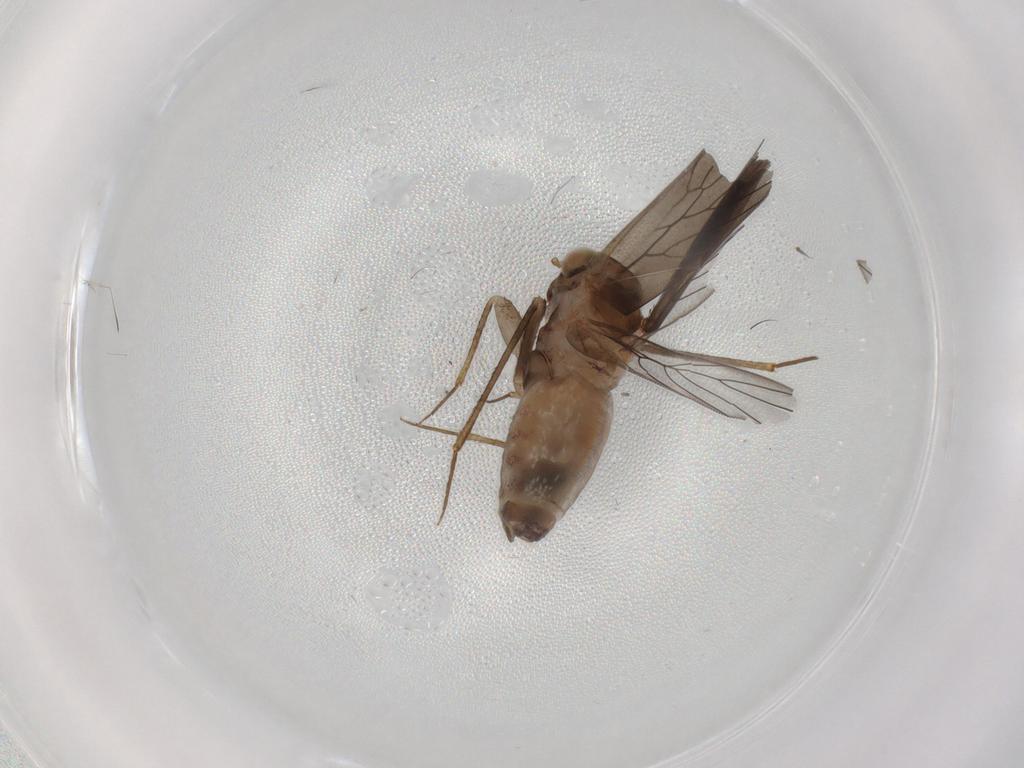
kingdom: Animalia
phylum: Arthropoda
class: Insecta
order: Psocodea
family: Lepidopsocidae
